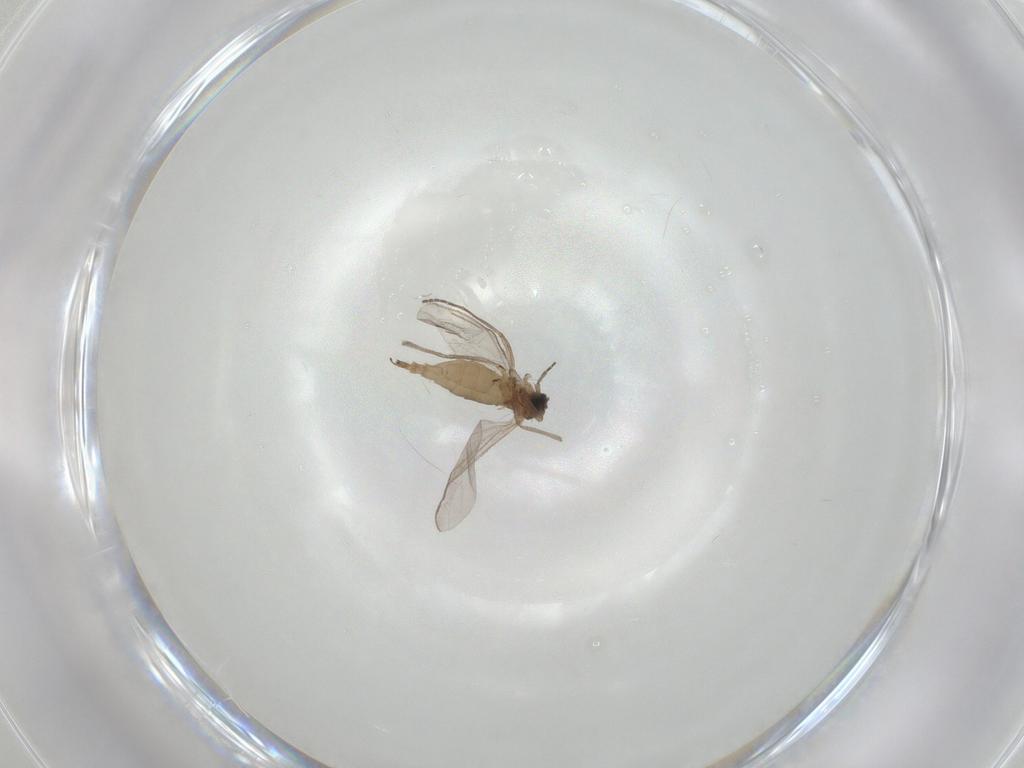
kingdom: Animalia
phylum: Arthropoda
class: Insecta
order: Diptera
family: Sciaridae
